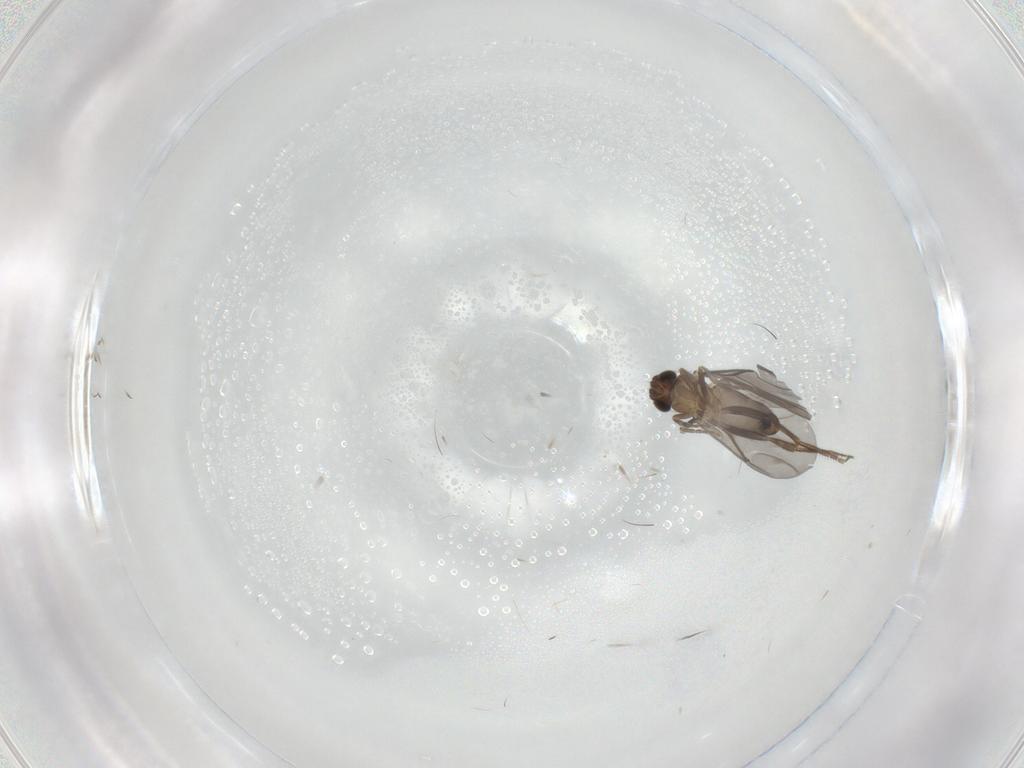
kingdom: Animalia
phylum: Arthropoda
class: Insecta
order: Diptera
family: Phoridae
